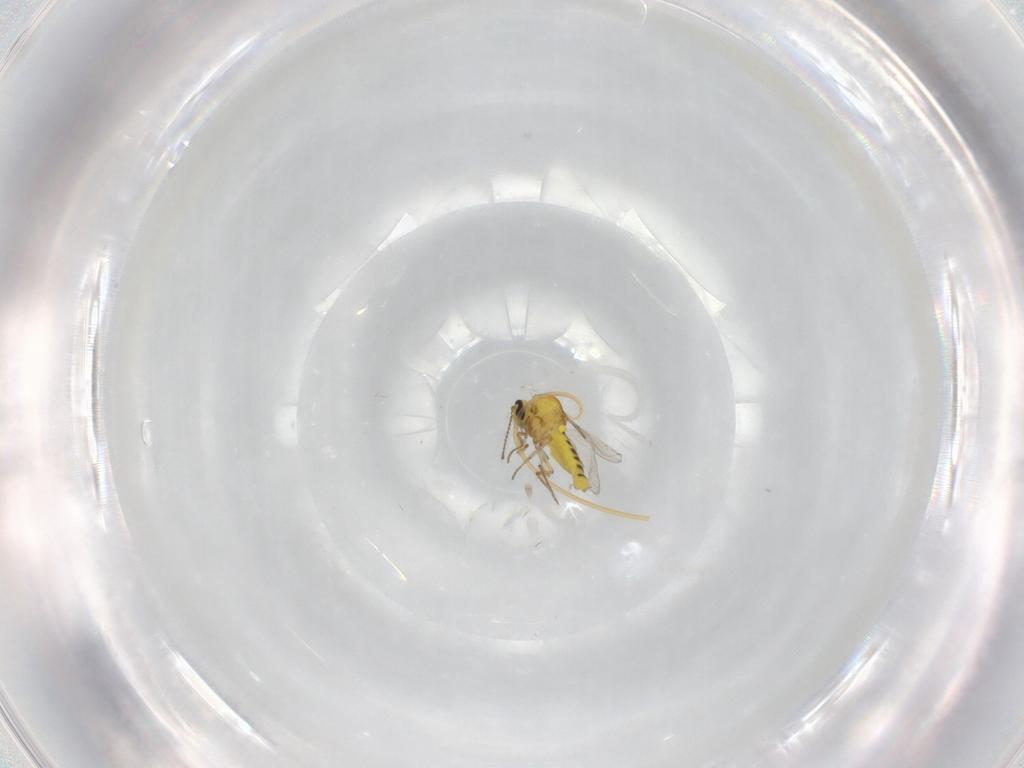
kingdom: Animalia
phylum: Arthropoda
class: Insecta
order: Diptera
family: Ceratopogonidae
